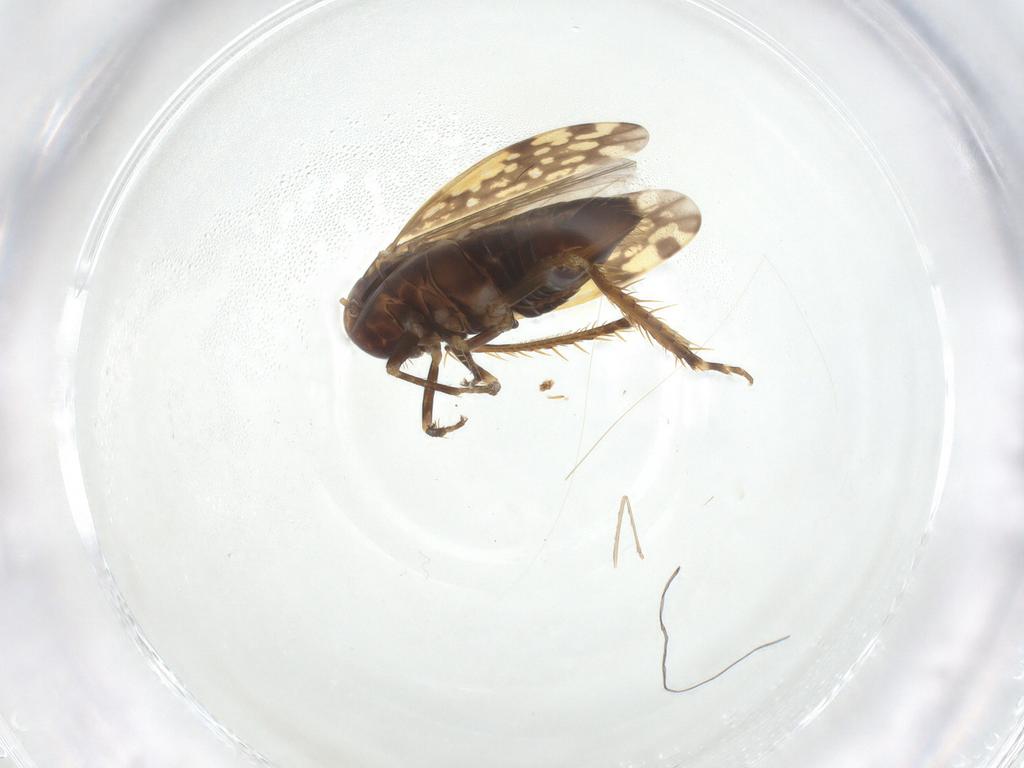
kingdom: Animalia
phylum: Arthropoda
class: Insecta
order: Hemiptera
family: Cicadellidae
